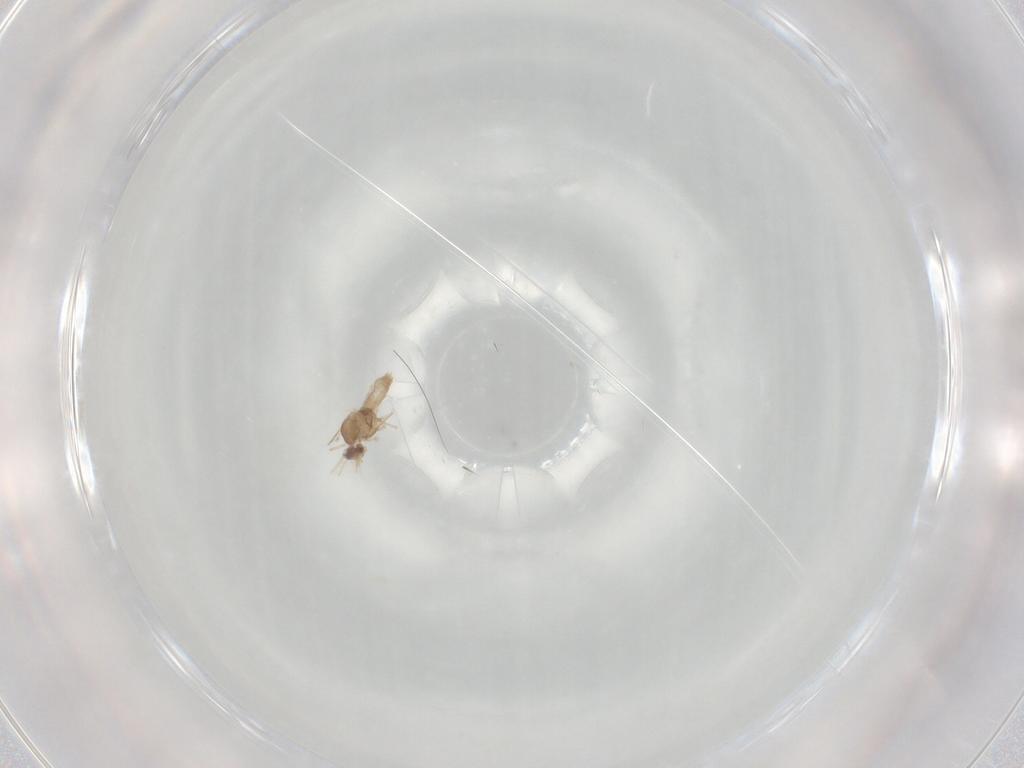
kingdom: Animalia
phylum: Arthropoda
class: Insecta
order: Diptera
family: Cecidomyiidae
